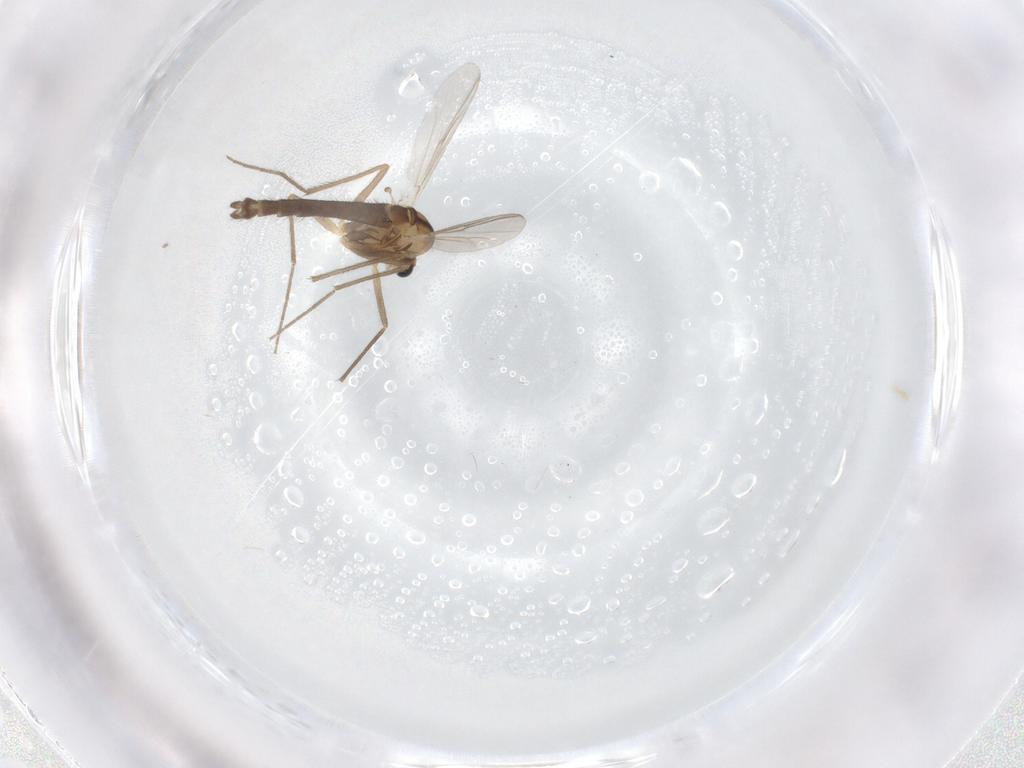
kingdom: Animalia
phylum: Arthropoda
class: Insecta
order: Diptera
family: Chironomidae
